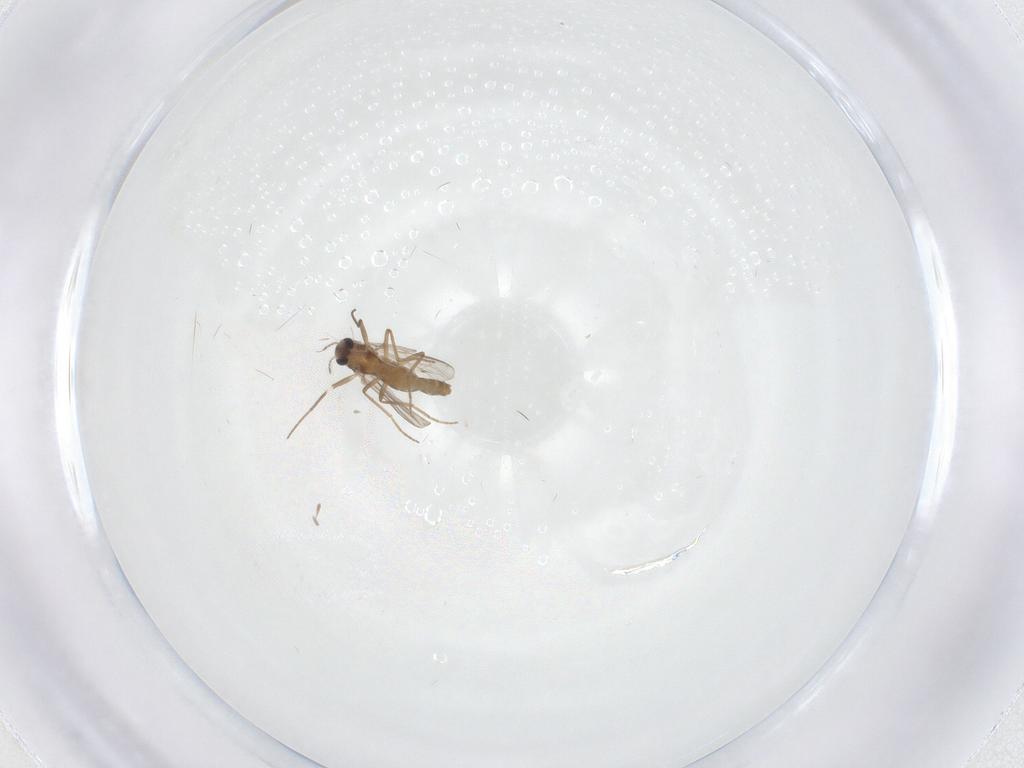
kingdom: Animalia
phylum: Arthropoda
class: Insecta
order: Diptera
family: Chironomidae
